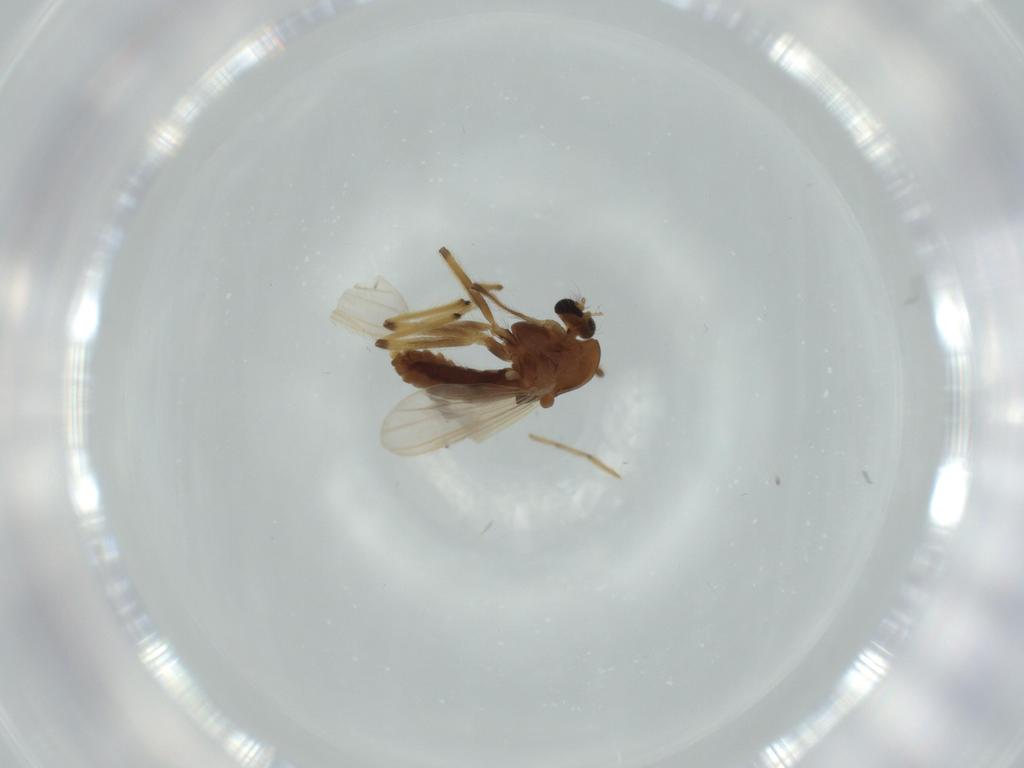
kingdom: Animalia
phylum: Arthropoda
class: Insecta
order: Diptera
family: Chironomidae
